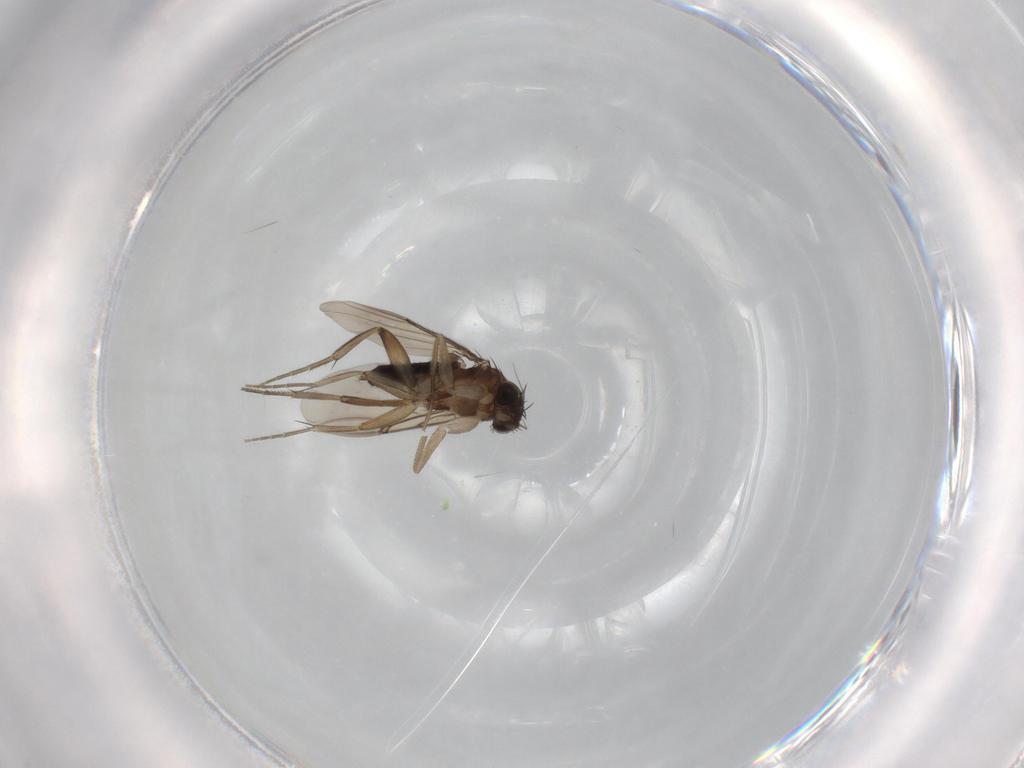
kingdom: Animalia
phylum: Arthropoda
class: Insecta
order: Diptera
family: Phoridae
